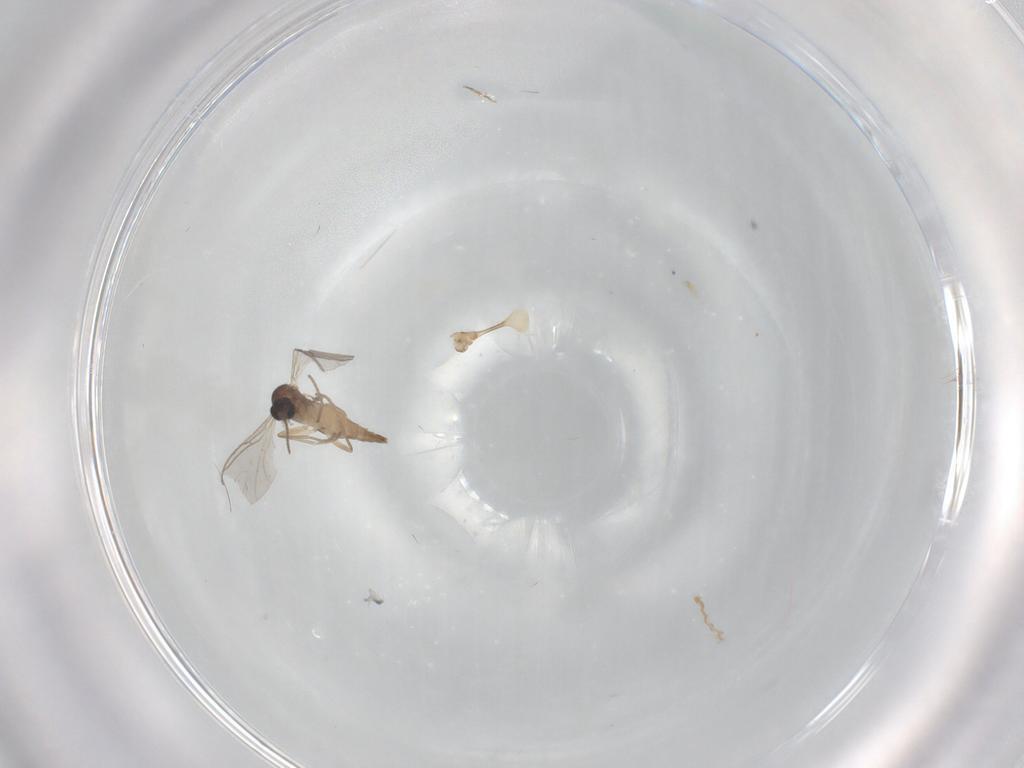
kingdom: Animalia
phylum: Arthropoda
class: Insecta
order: Diptera
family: Sciaridae
